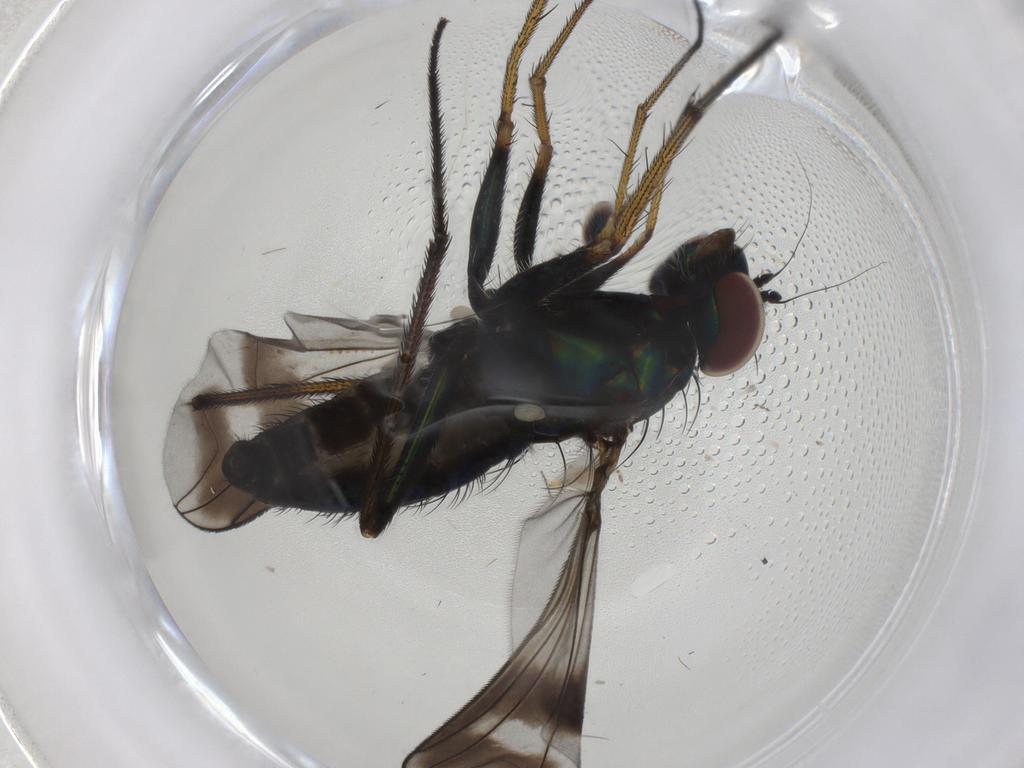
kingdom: Animalia
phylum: Arthropoda
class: Insecta
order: Diptera
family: Dolichopodidae
